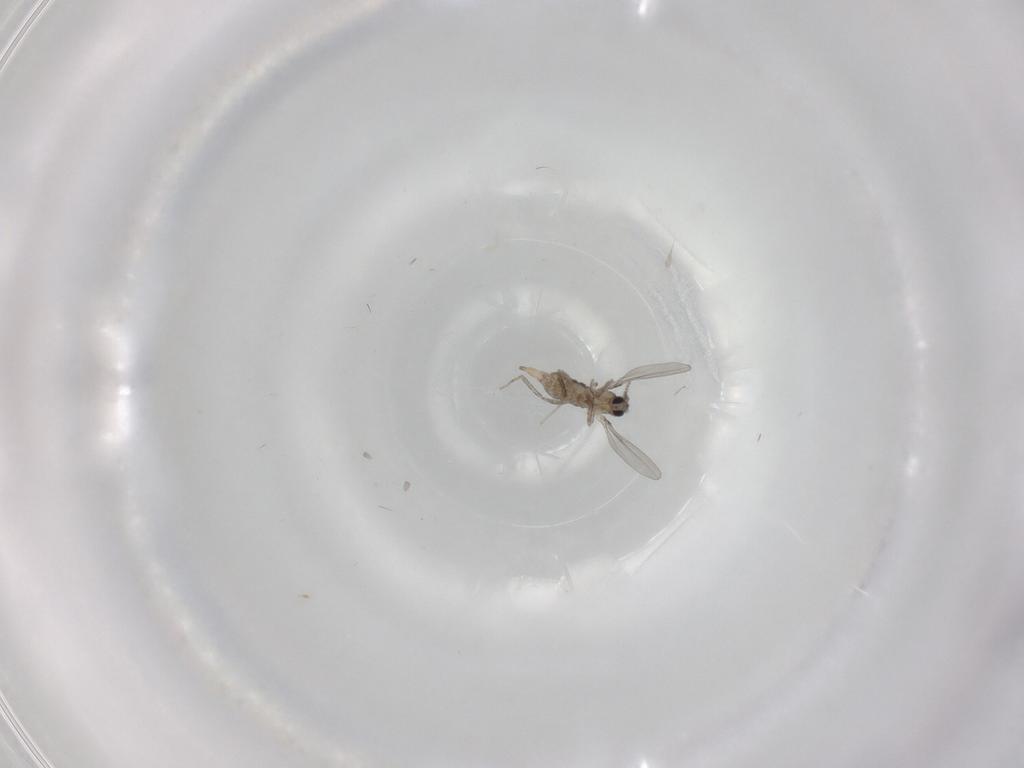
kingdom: Animalia
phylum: Arthropoda
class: Insecta
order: Diptera
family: Cecidomyiidae
